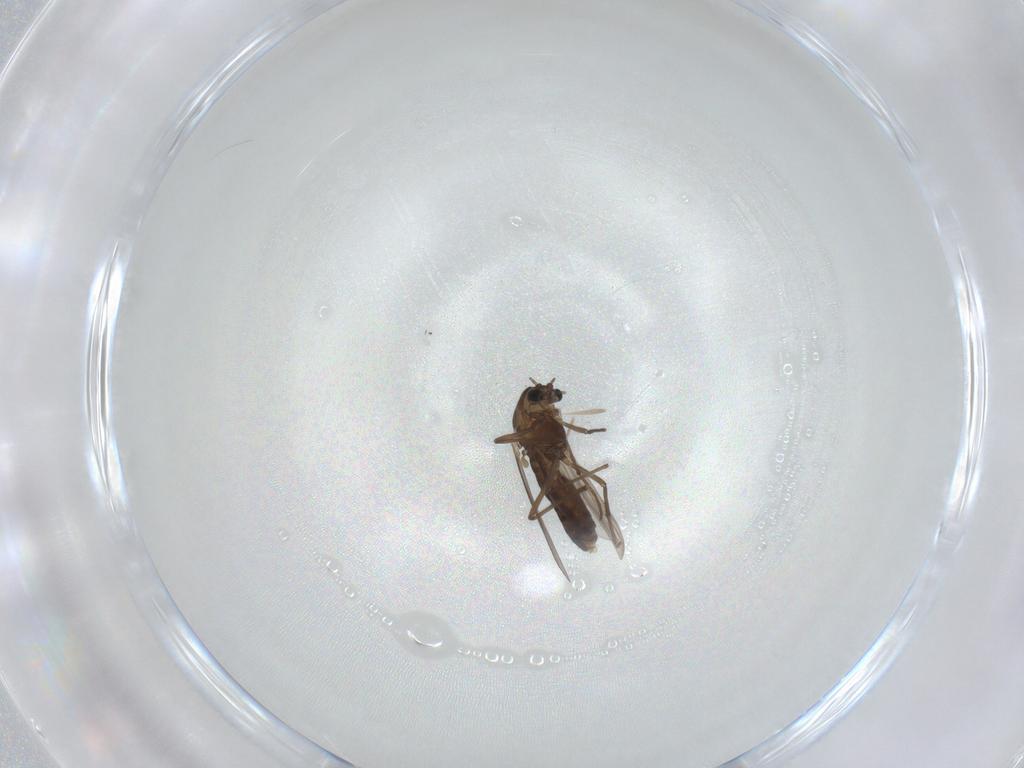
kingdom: Animalia
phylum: Arthropoda
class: Insecta
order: Diptera
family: Chironomidae
